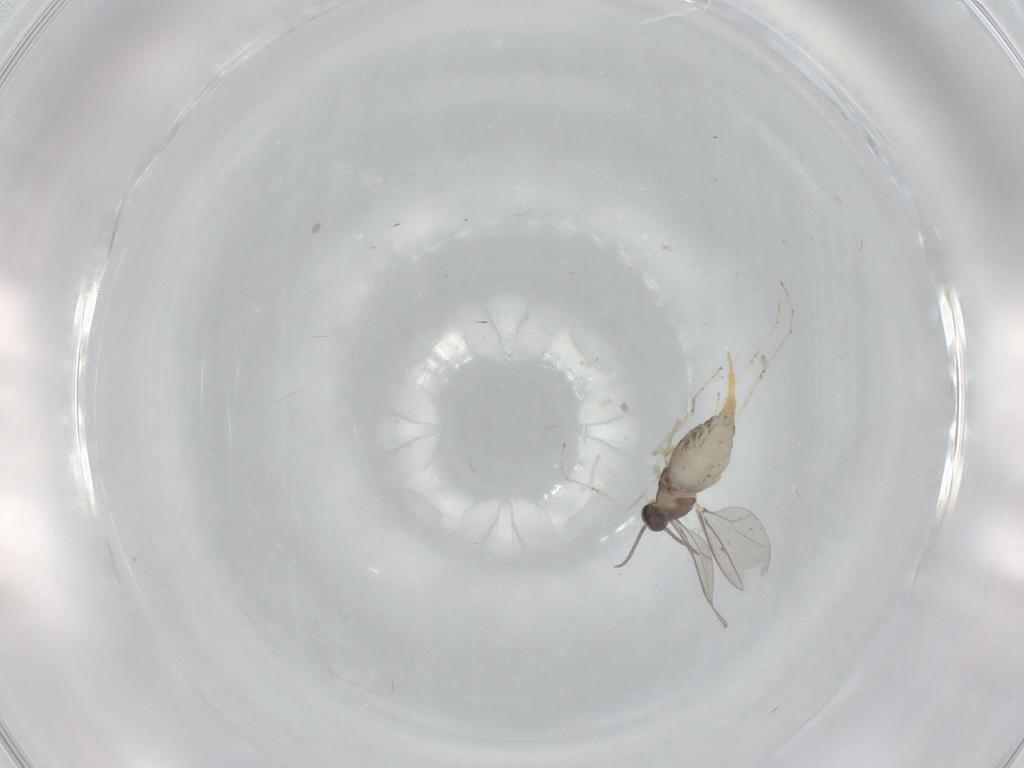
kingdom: Animalia
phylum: Arthropoda
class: Insecta
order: Diptera
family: Cecidomyiidae
